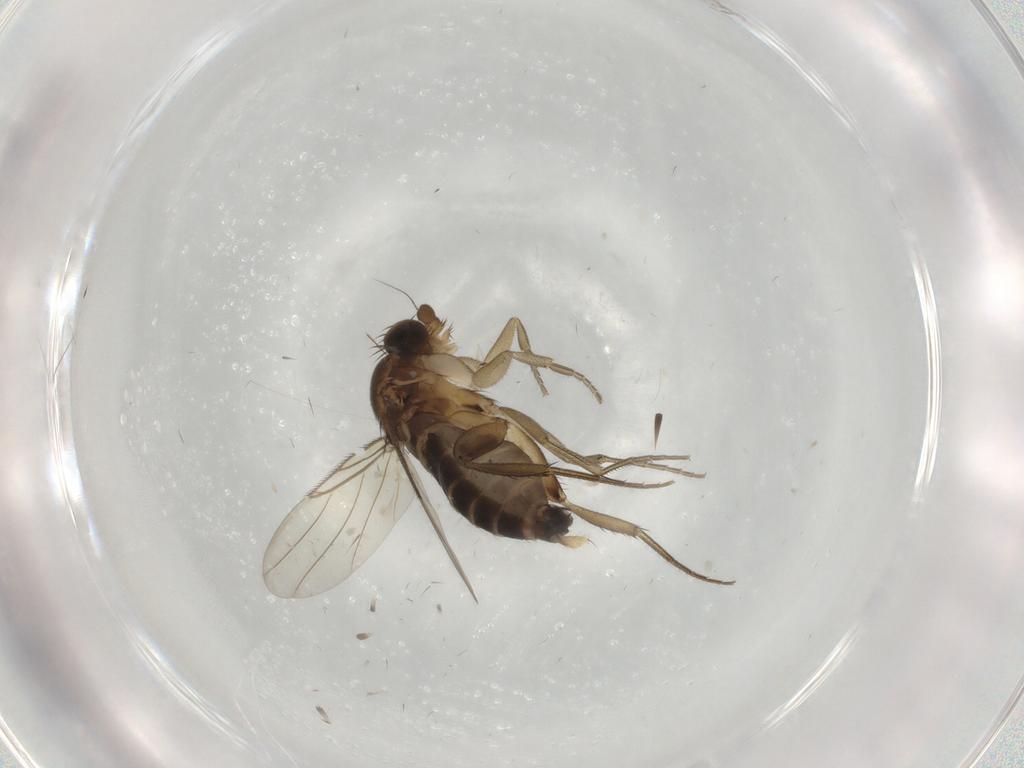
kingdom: Animalia
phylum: Arthropoda
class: Insecta
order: Diptera
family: Phoridae
